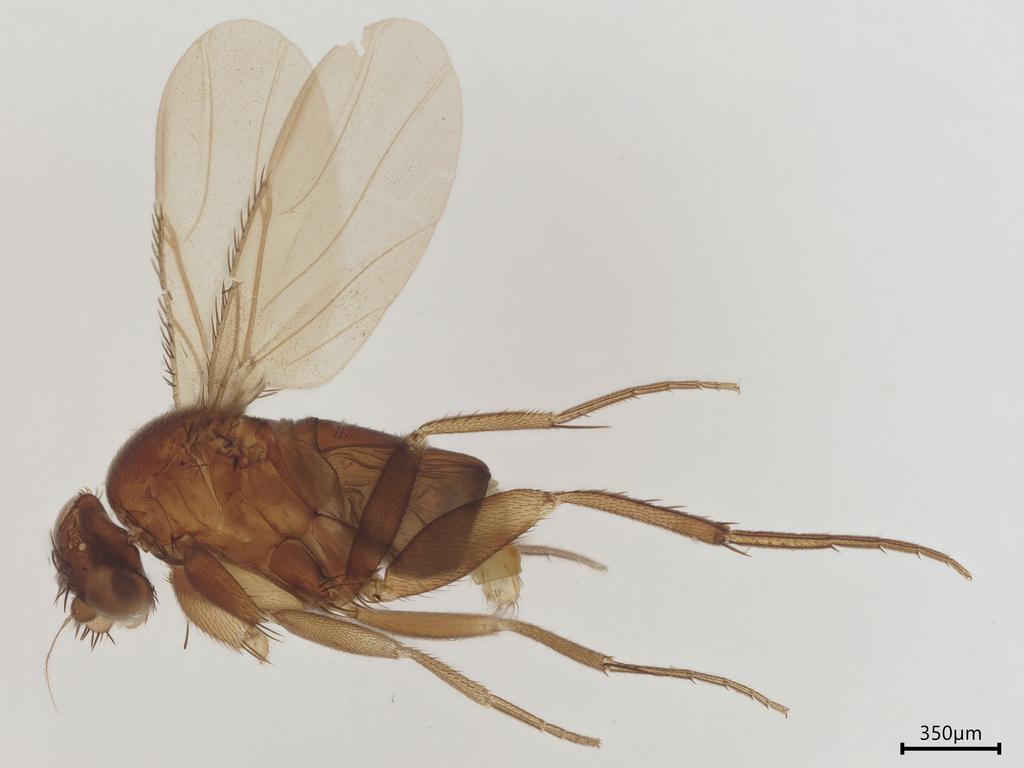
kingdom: Animalia
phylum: Arthropoda
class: Insecta
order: Diptera
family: Phoridae
